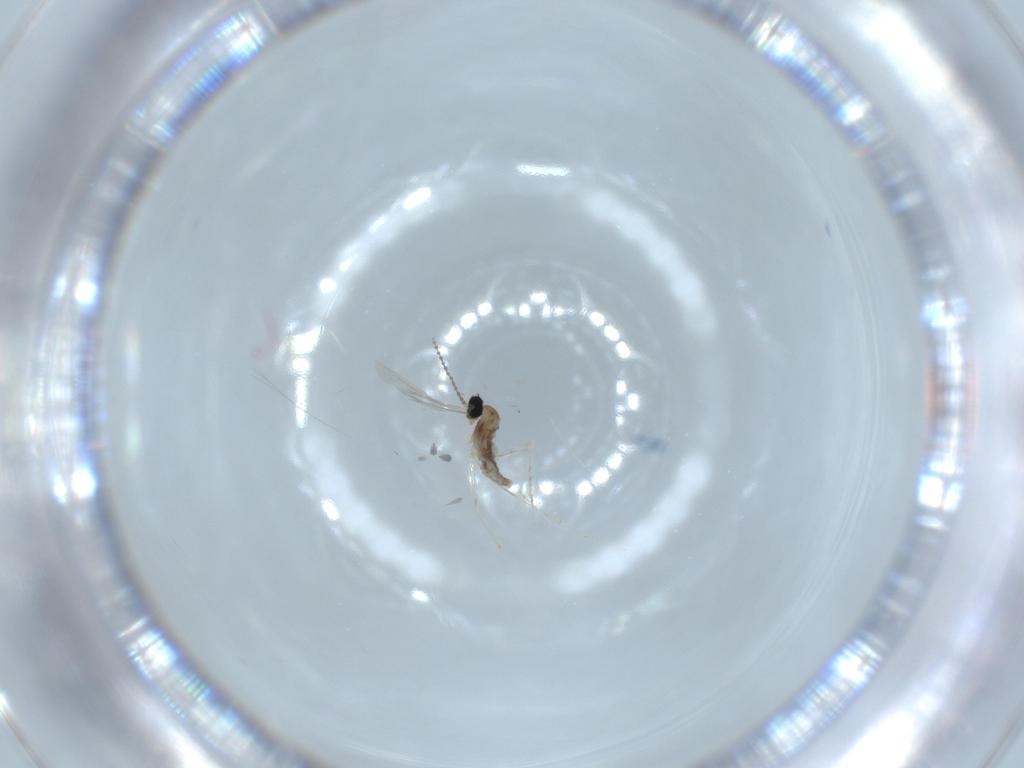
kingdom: Animalia
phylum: Arthropoda
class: Insecta
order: Diptera
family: Cecidomyiidae
